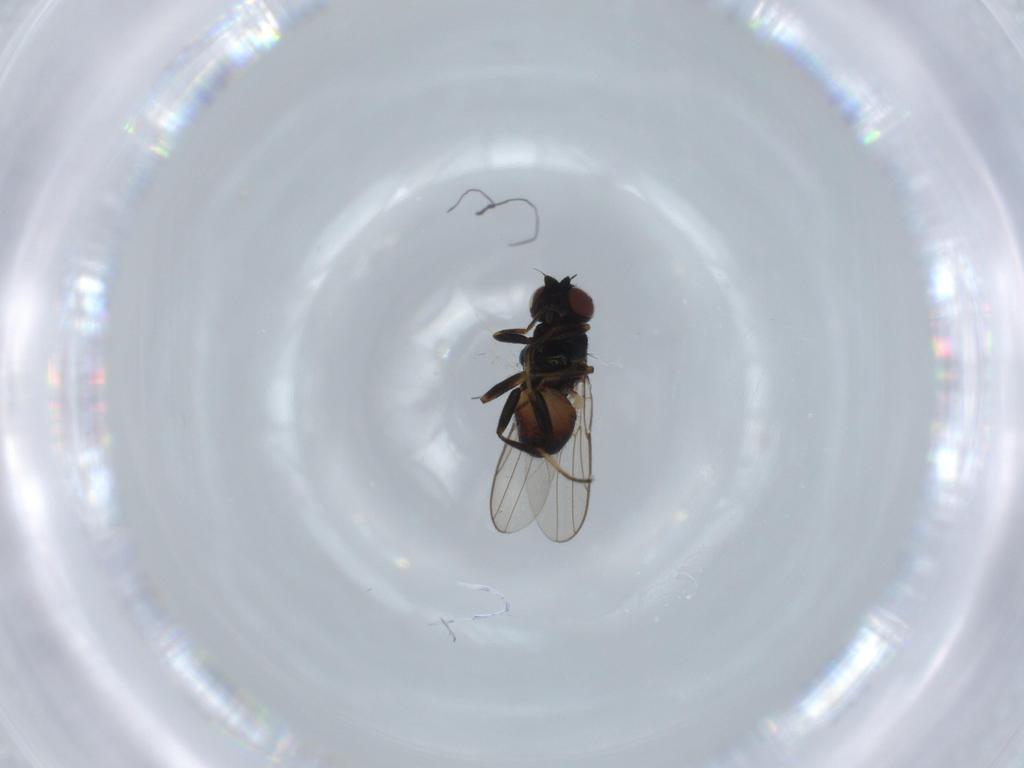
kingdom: Animalia
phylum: Arthropoda
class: Insecta
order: Diptera
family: Chloropidae
